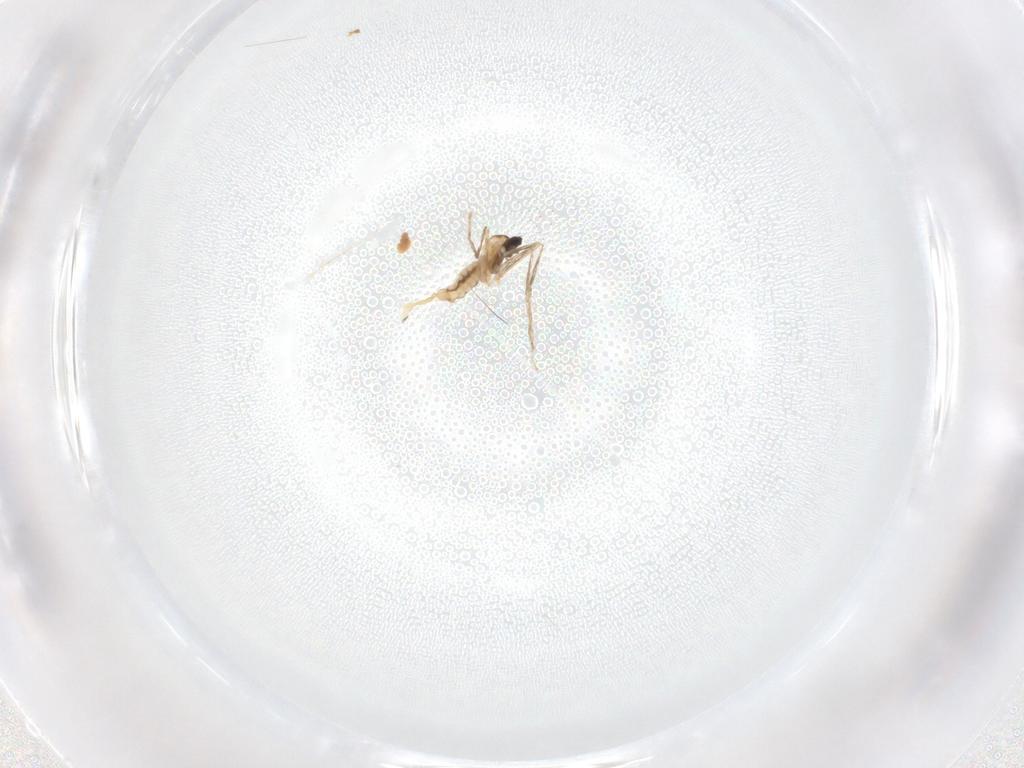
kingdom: Animalia
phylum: Arthropoda
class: Insecta
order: Diptera
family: Cecidomyiidae
